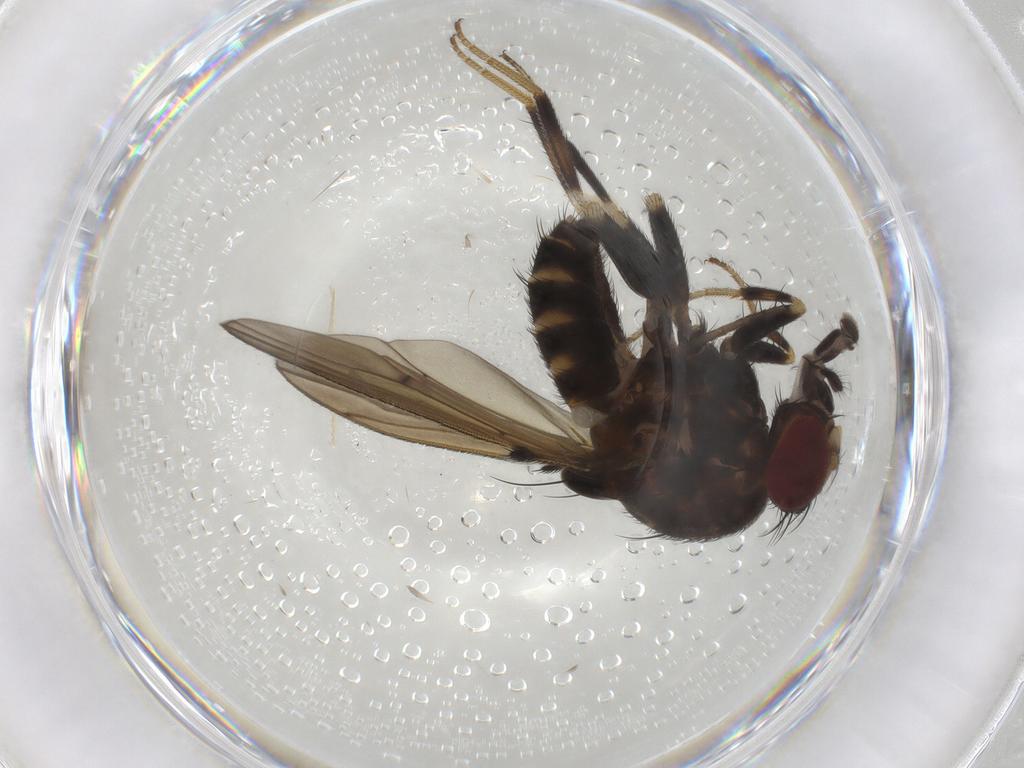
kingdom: Animalia
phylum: Arthropoda
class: Insecta
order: Diptera
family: Drosophilidae
